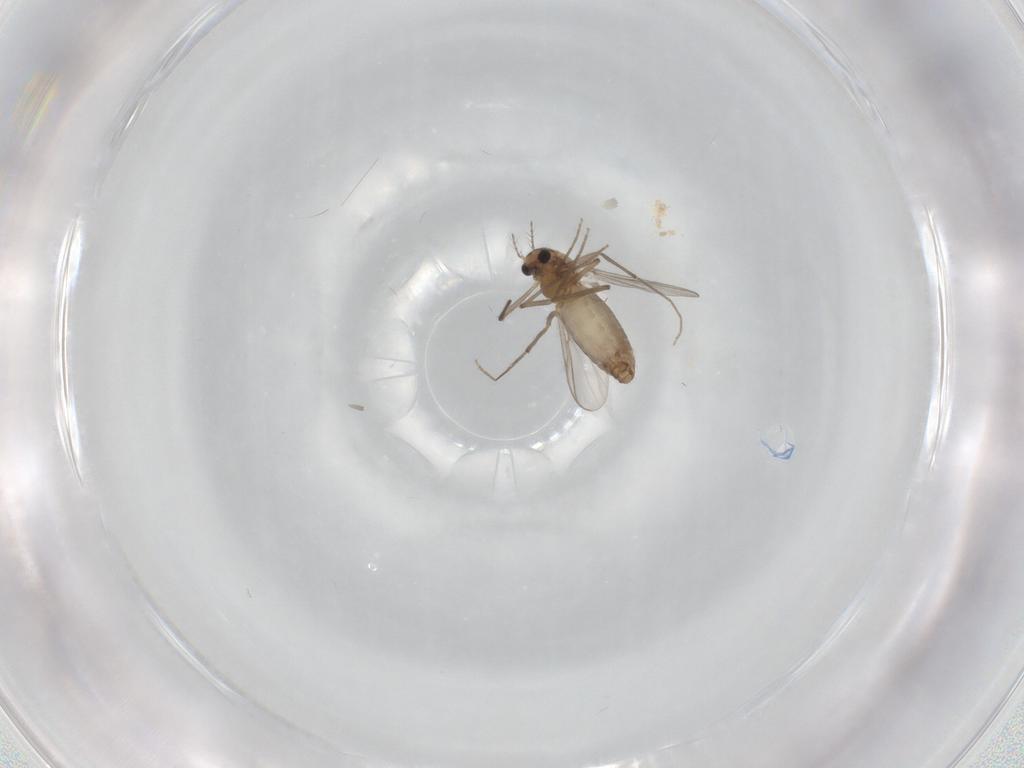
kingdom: Animalia
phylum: Arthropoda
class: Insecta
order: Diptera
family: Chironomidae
